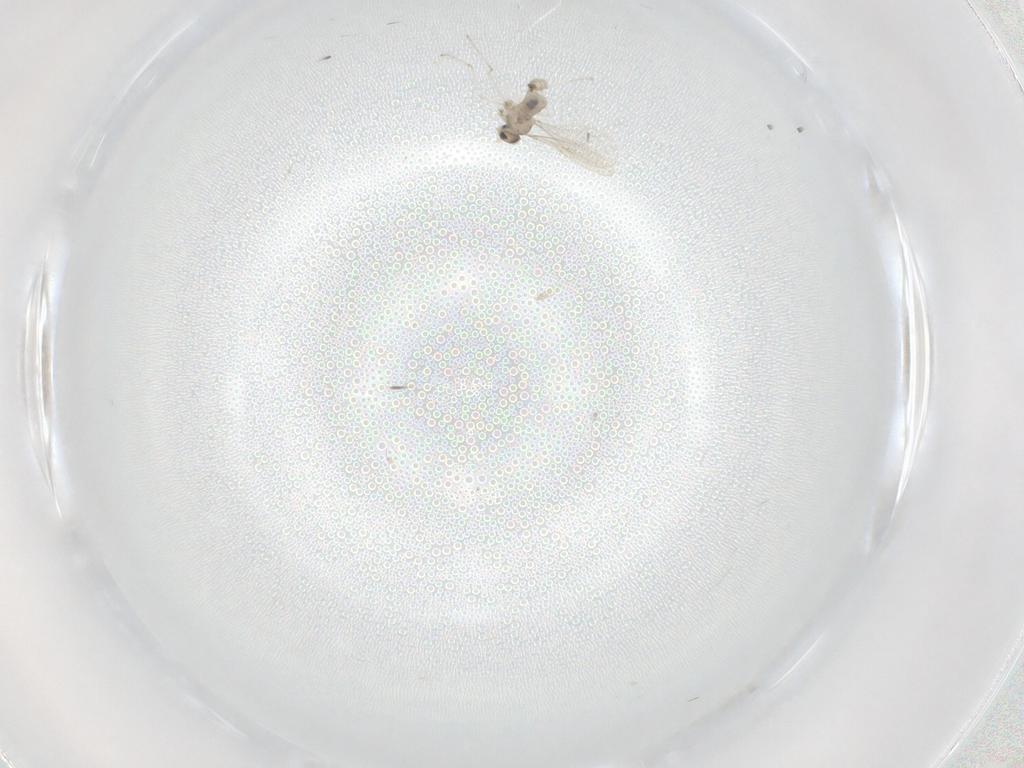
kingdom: Animalia
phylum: Arthropoda
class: Insecta
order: Diptera
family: Cecidomyiidae
